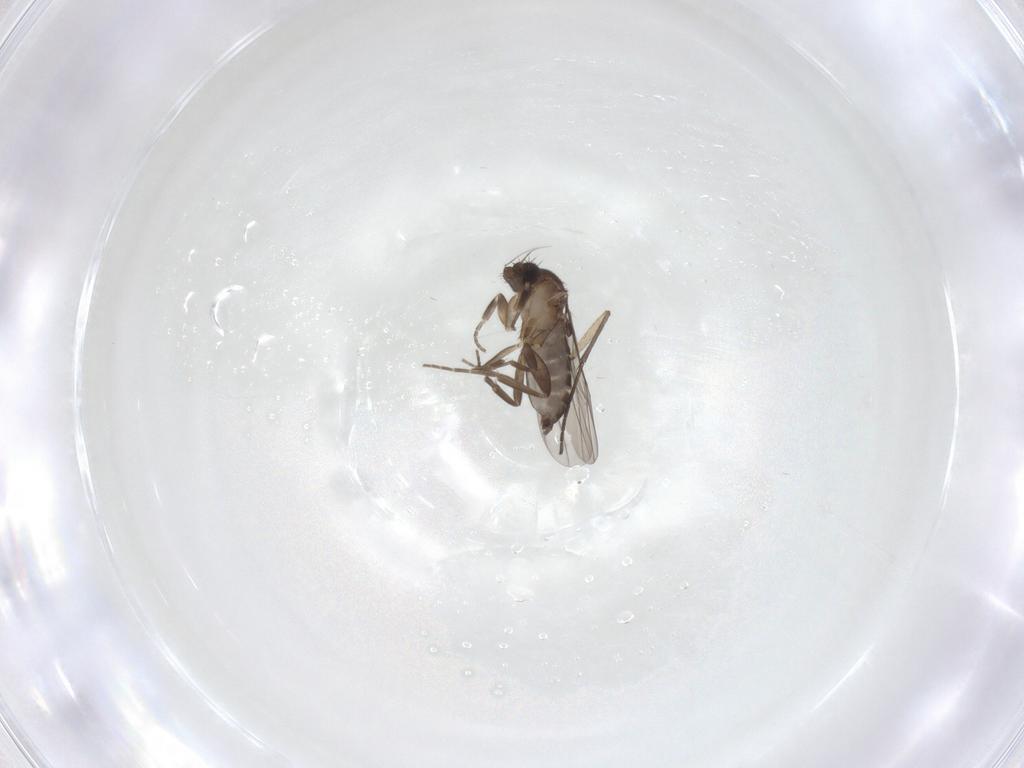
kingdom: Animalia
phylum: Arthropoda
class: Insecta
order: Diptera
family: Sciaridae
